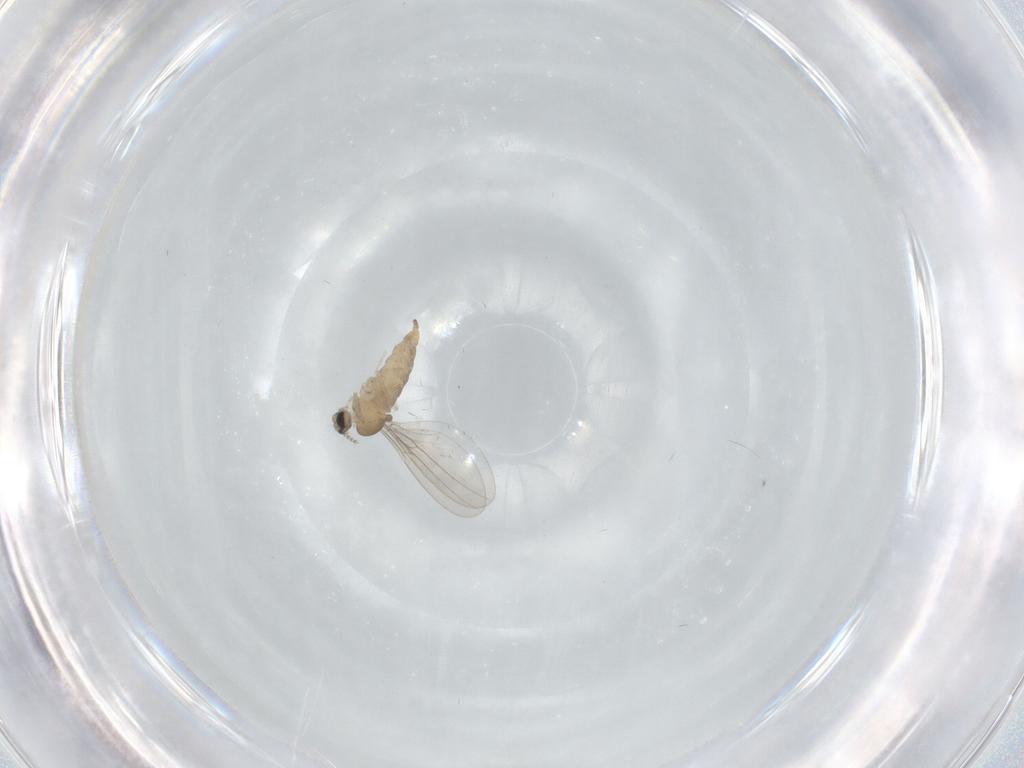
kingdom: Animalia
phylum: Arthropoda
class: Insecta
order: Diptera
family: Cecidomyiidae
